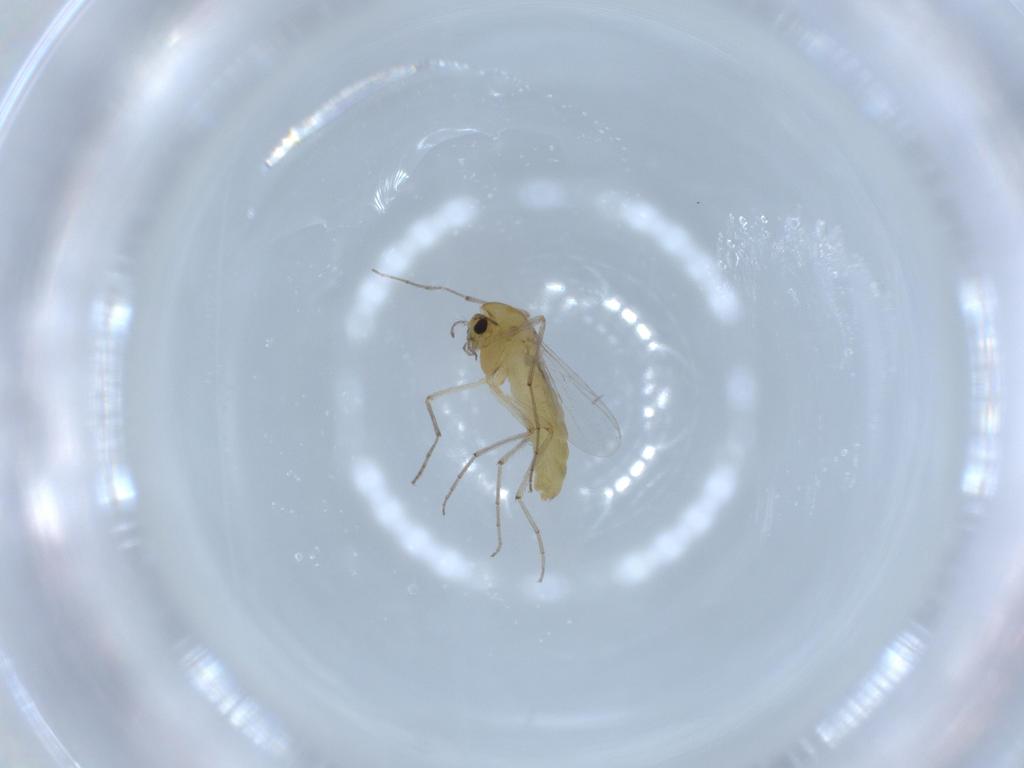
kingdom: Animalia
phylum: Arthropoda
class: Insecta
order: Diptera
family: Chironomidae
